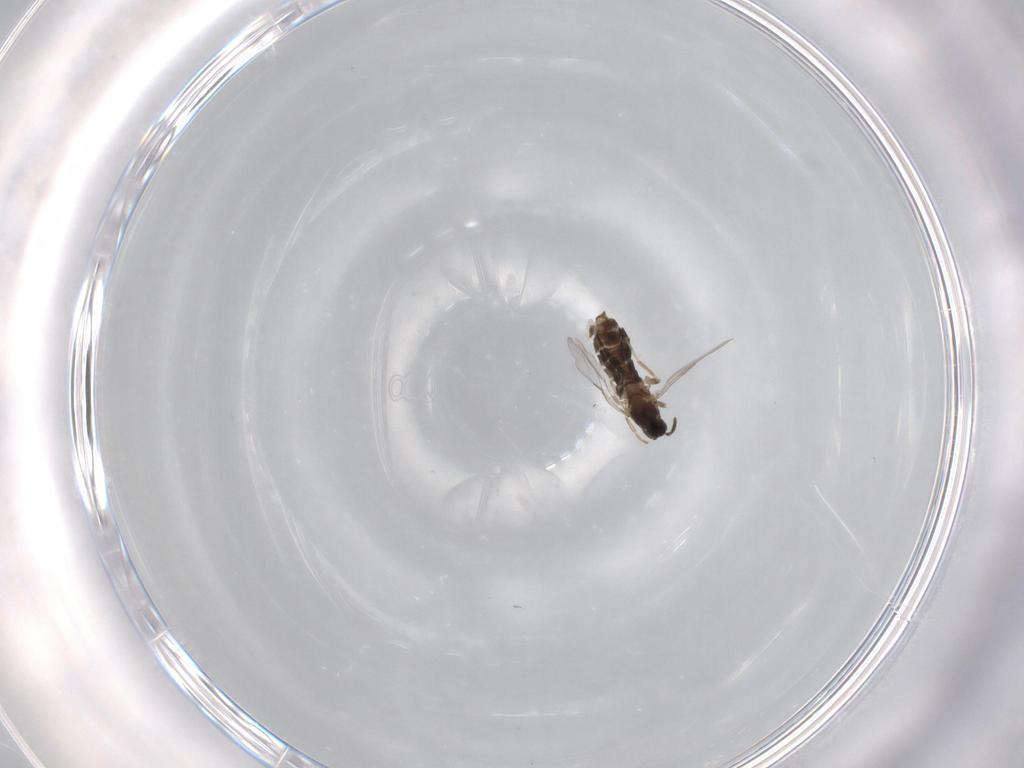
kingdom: Animalia
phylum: Arthropoda
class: Insecta
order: Diptera
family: Scatopsidae
